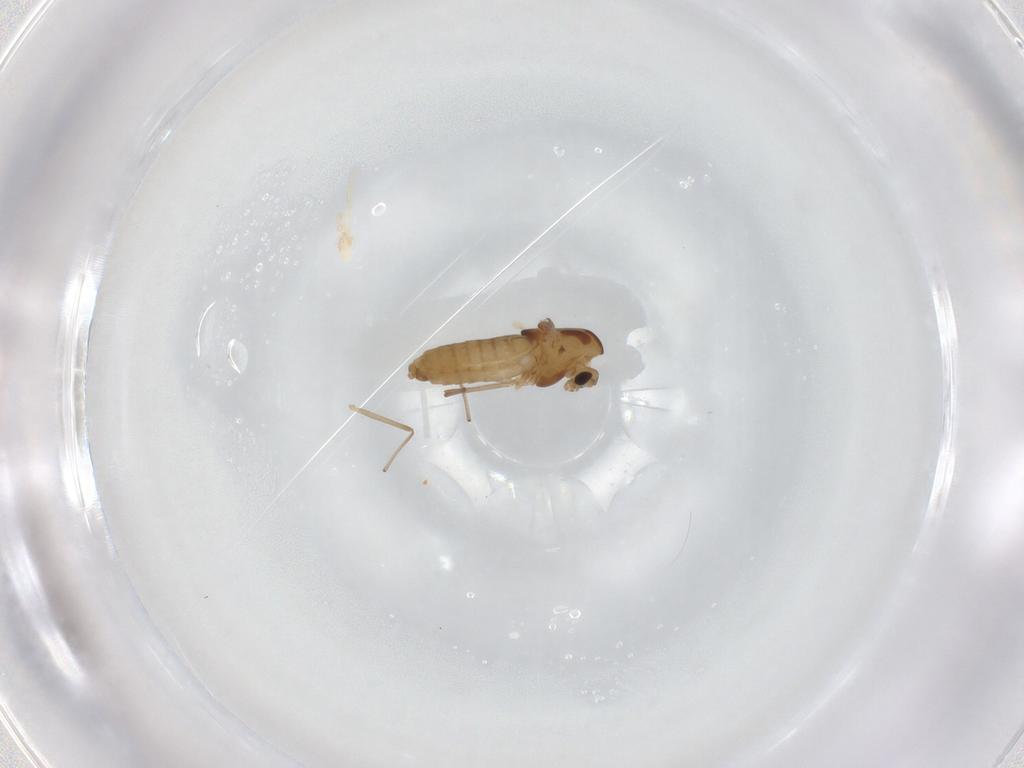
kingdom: Animalia
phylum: Arthropoda
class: Insecta
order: Diptera
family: Chironomidae
